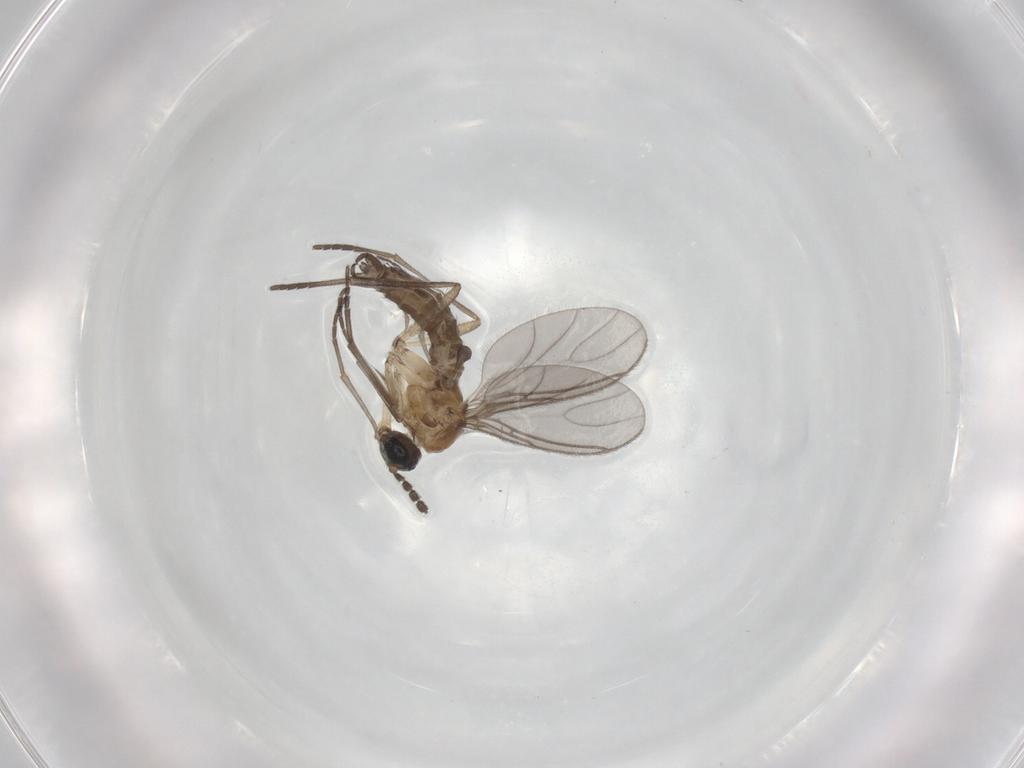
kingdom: Animalia
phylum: Arthropoda
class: Insecta
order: Diptera
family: Sciaridae
